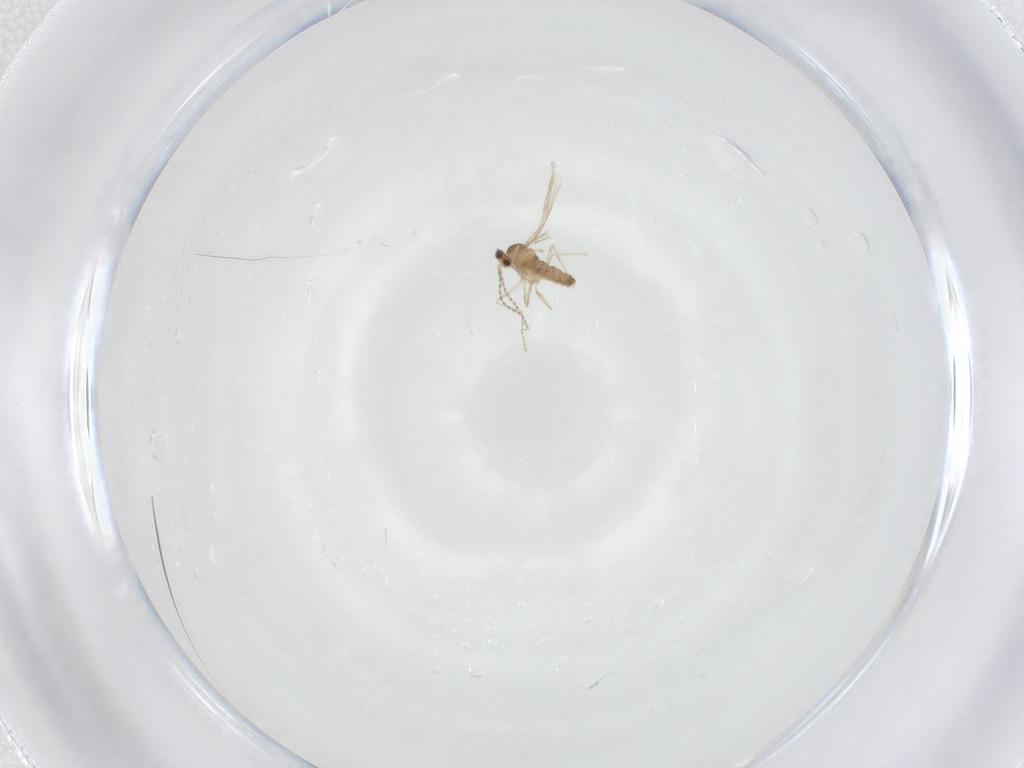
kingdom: Animalia
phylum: Arthropoda
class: Insecta
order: Diptera
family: Cecidomyiidae
